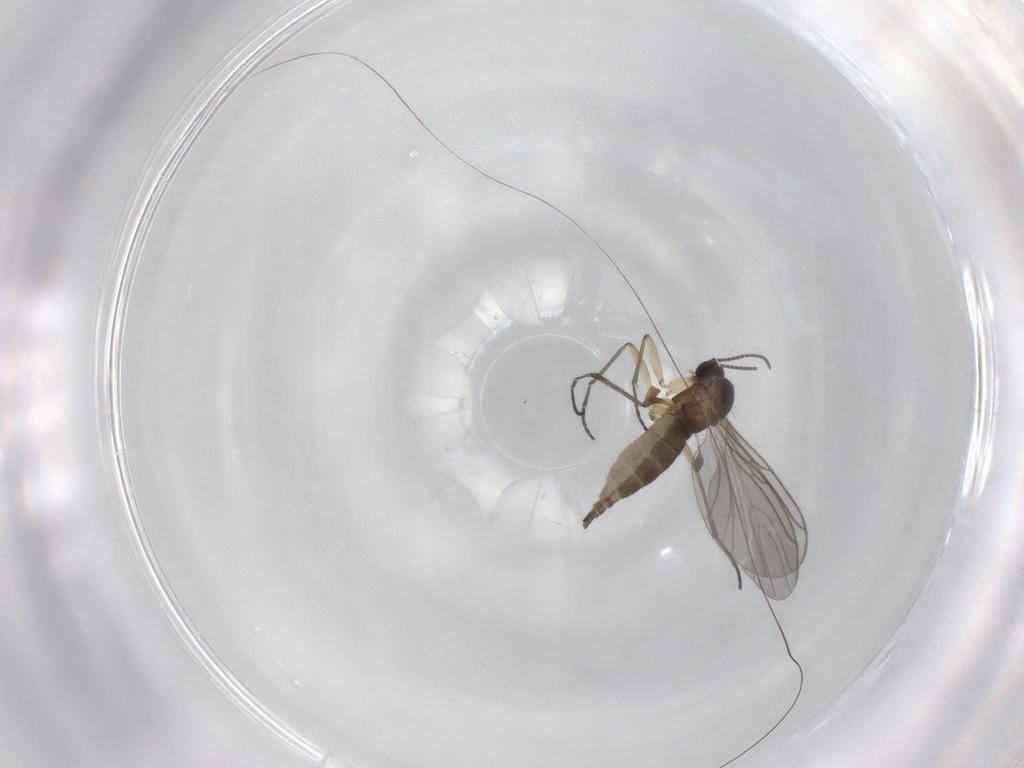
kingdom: Animalia
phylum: Arthropoda
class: Insecta
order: Diptera
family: Sciaridae
